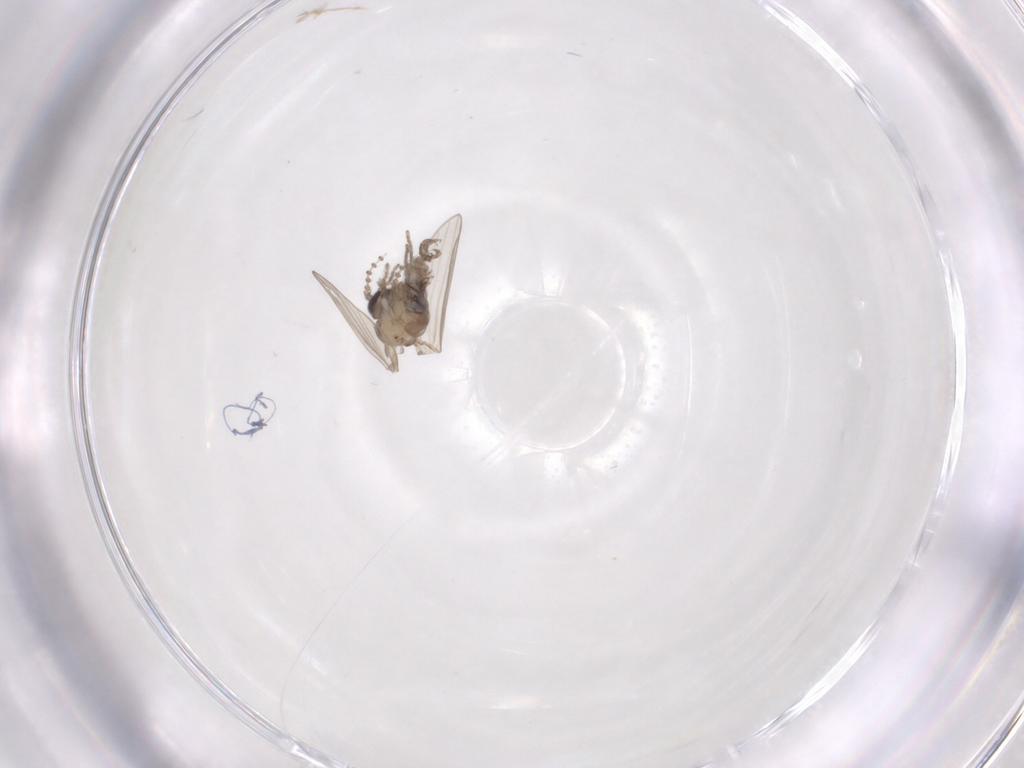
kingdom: Animalia
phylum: Arthropoda
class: Insecta
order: Diptera
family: Psychodidae
